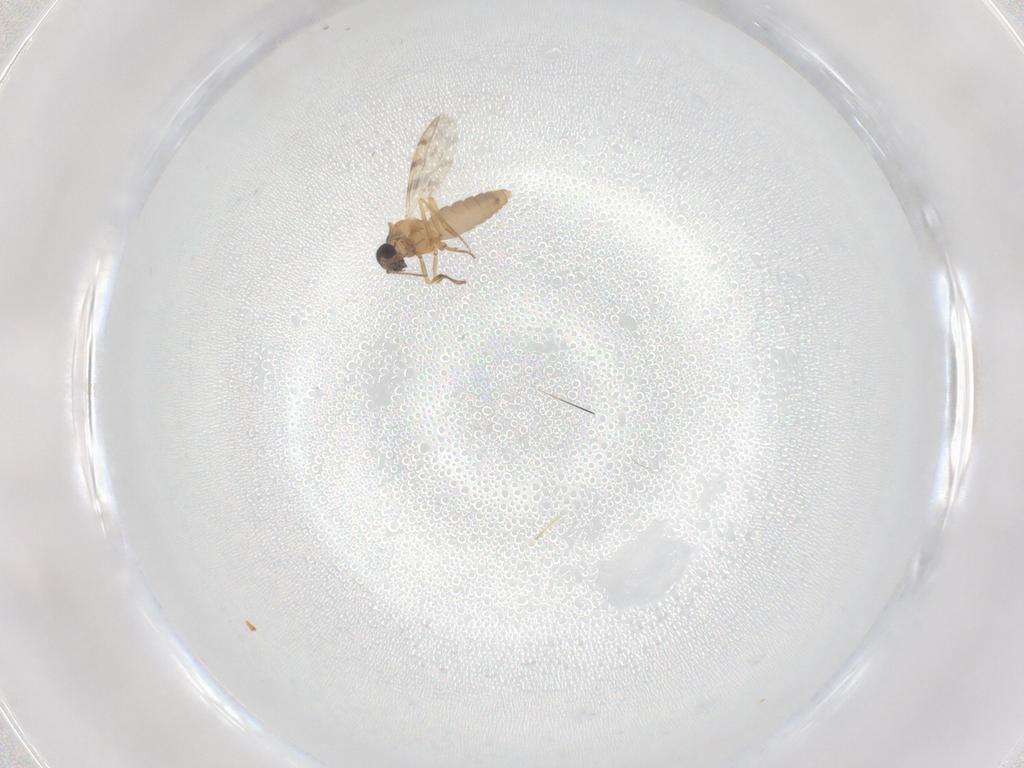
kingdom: Animalia
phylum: Arthropoda
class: Insecta
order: Diptera
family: Ceratopogonidae
